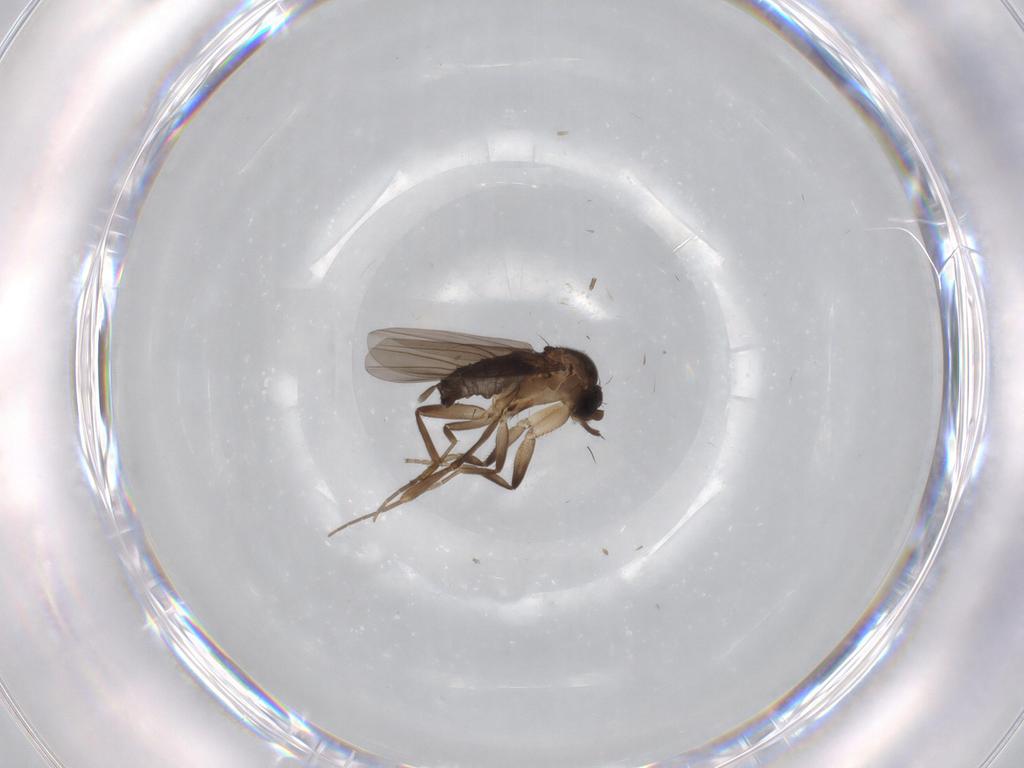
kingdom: Animalia
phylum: Arthropoda
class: Insecta
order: Diptera
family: Phoridae
